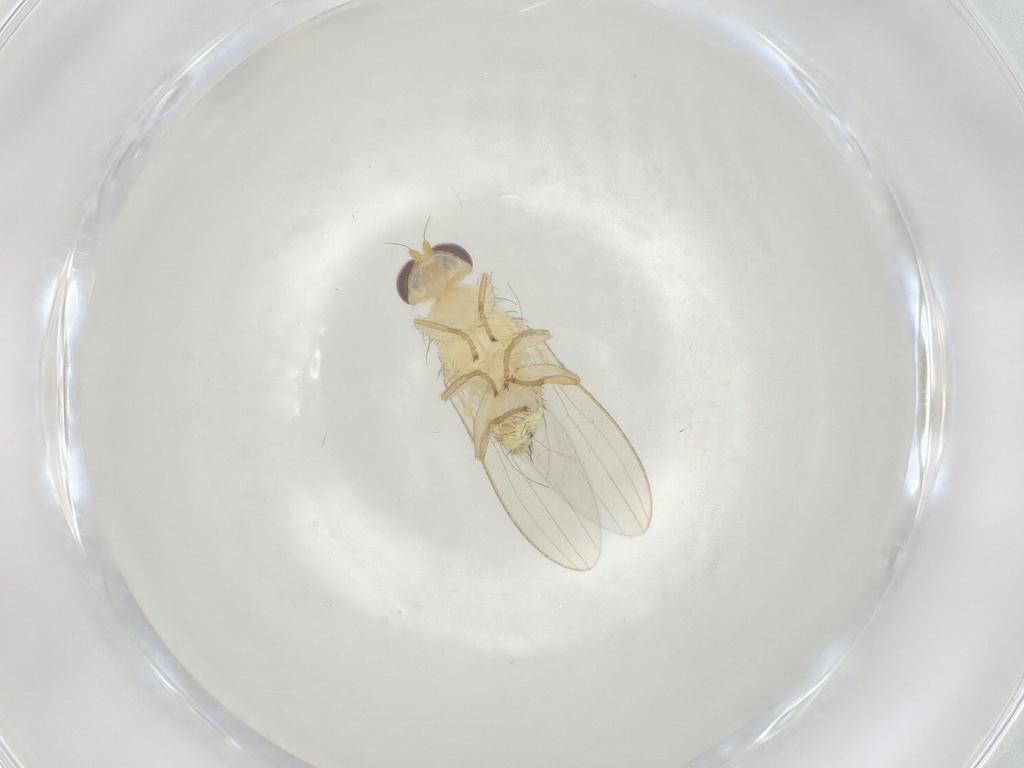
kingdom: Animalia
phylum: Arthropoda
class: Insecta
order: Diptera
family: Chyromyidae
